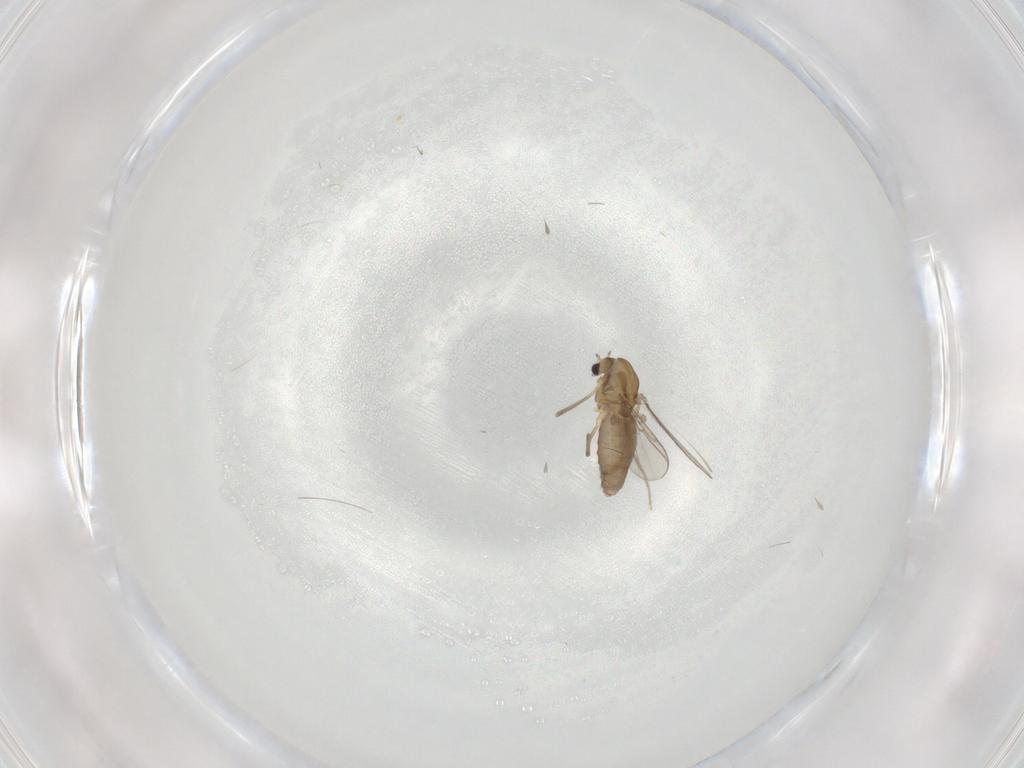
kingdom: Animalia
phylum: Arthropoda
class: Insecta
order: Diptera
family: Chironomidae
